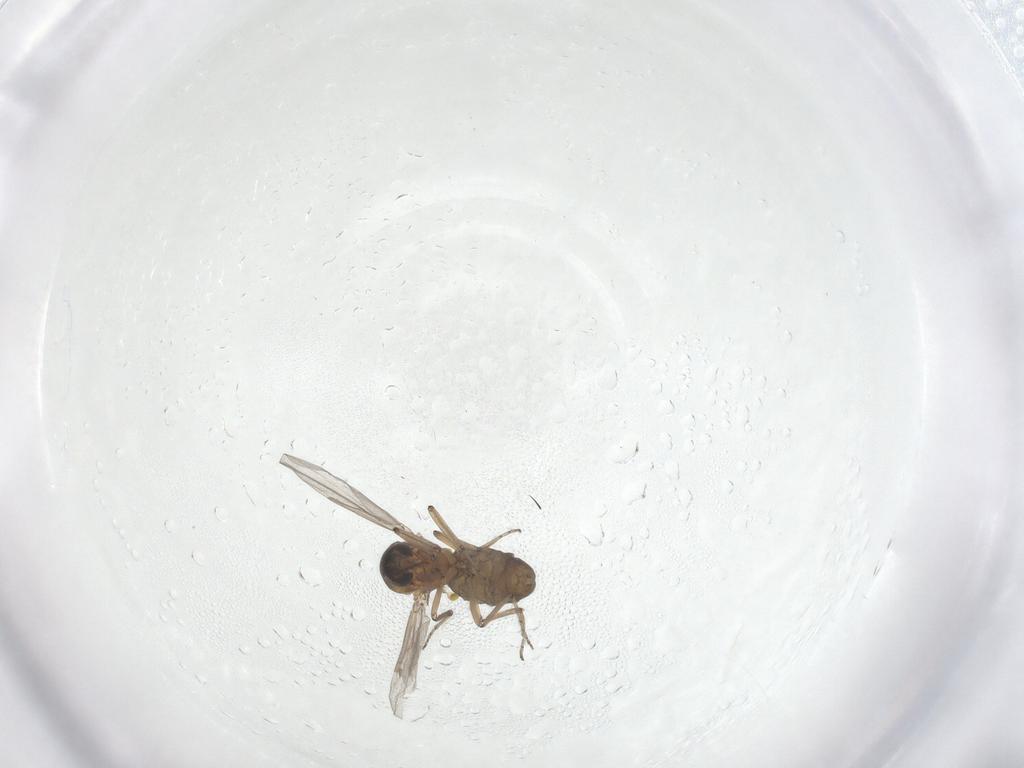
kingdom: Animalia
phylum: Arthropoda
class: Insecta
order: Diptera
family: Ceratopogonidae
